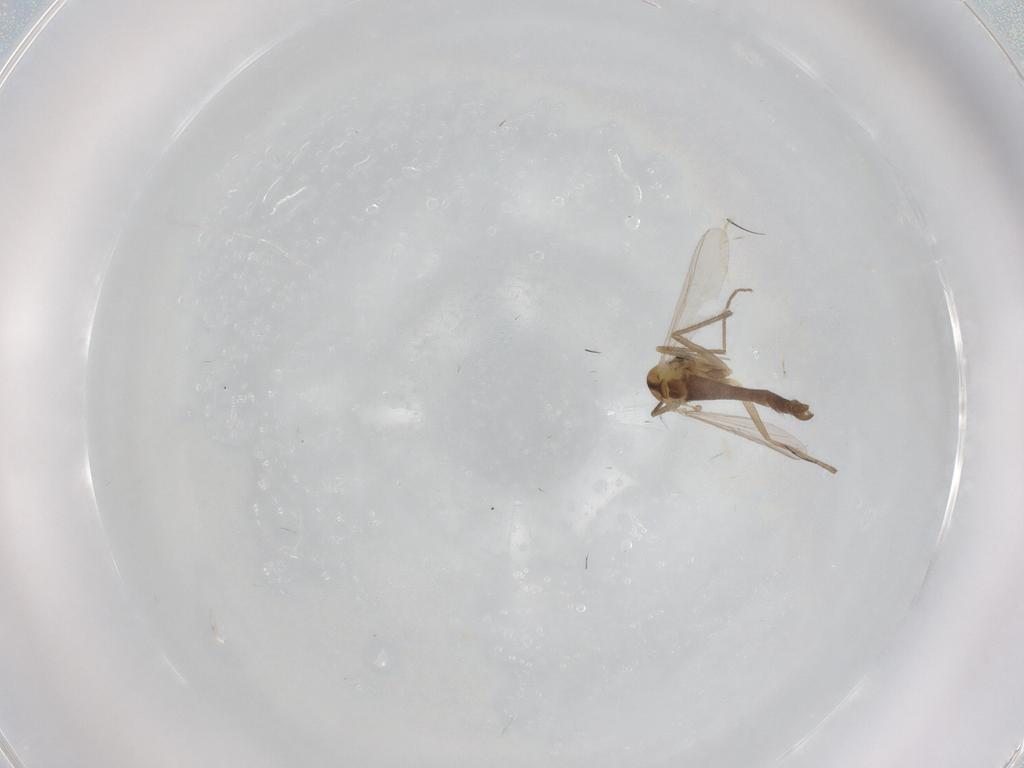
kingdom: Animalia
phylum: Arthropoda
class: Insecta
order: Diptera
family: Chironomidae
